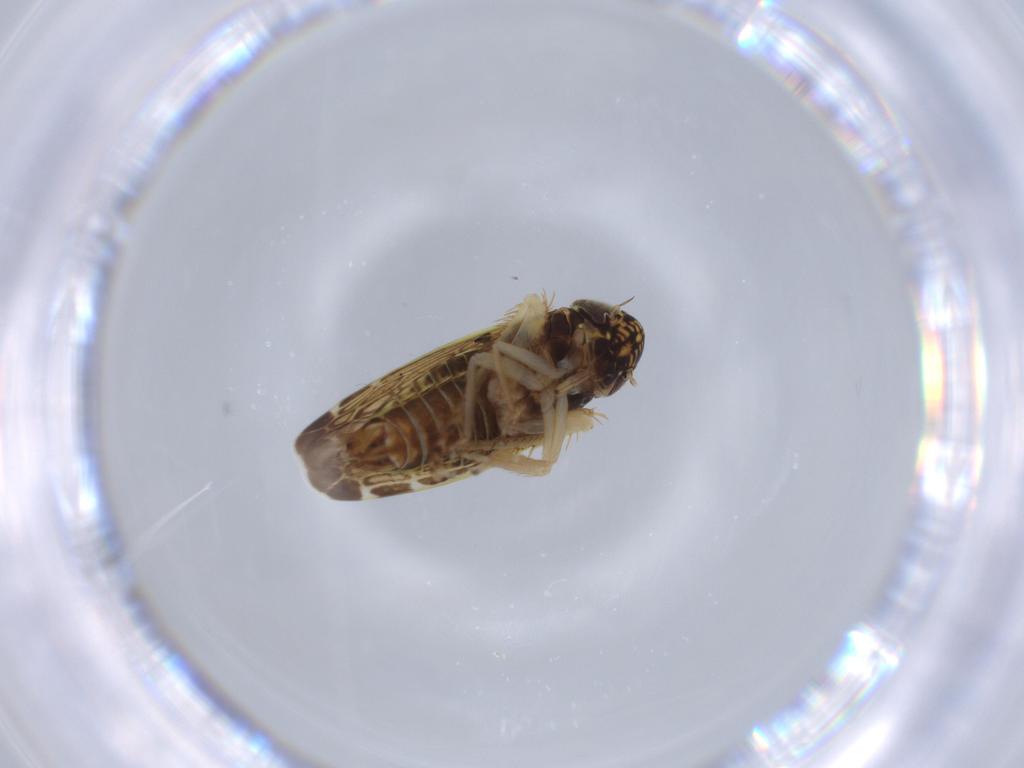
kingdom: Animalia
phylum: Arthropoda
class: Insecta
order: Hemiptera
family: Cicadellidae
